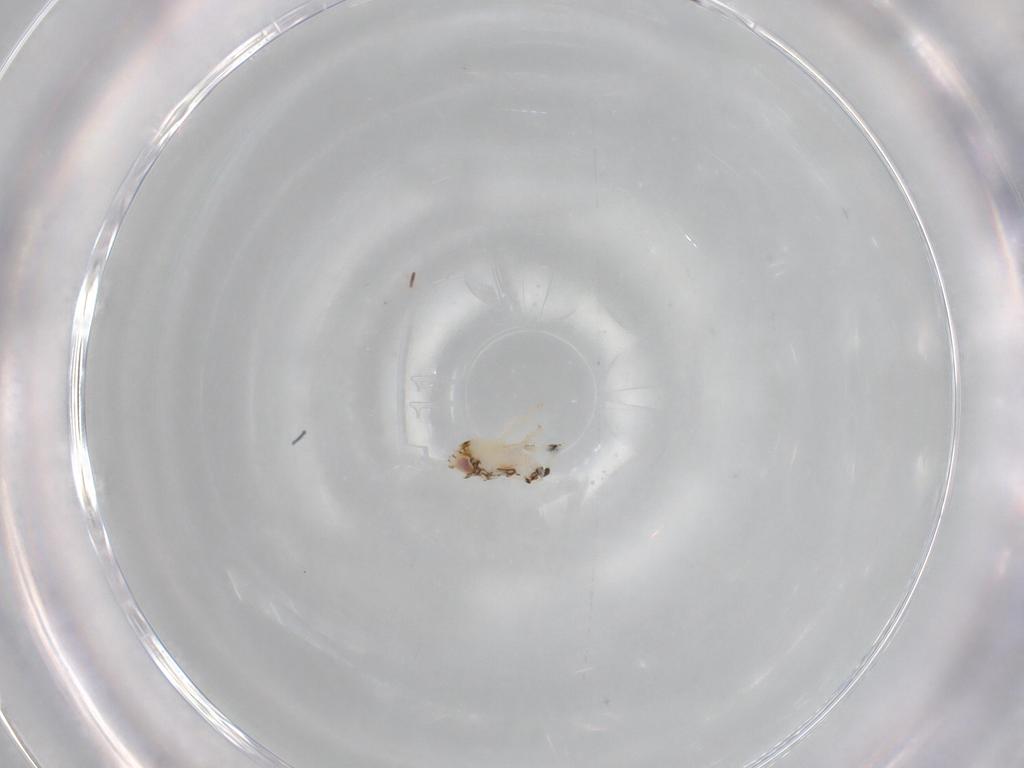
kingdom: Animalia
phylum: Arthropoda
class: Insecta
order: Hemiptera
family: Nogodinidae
